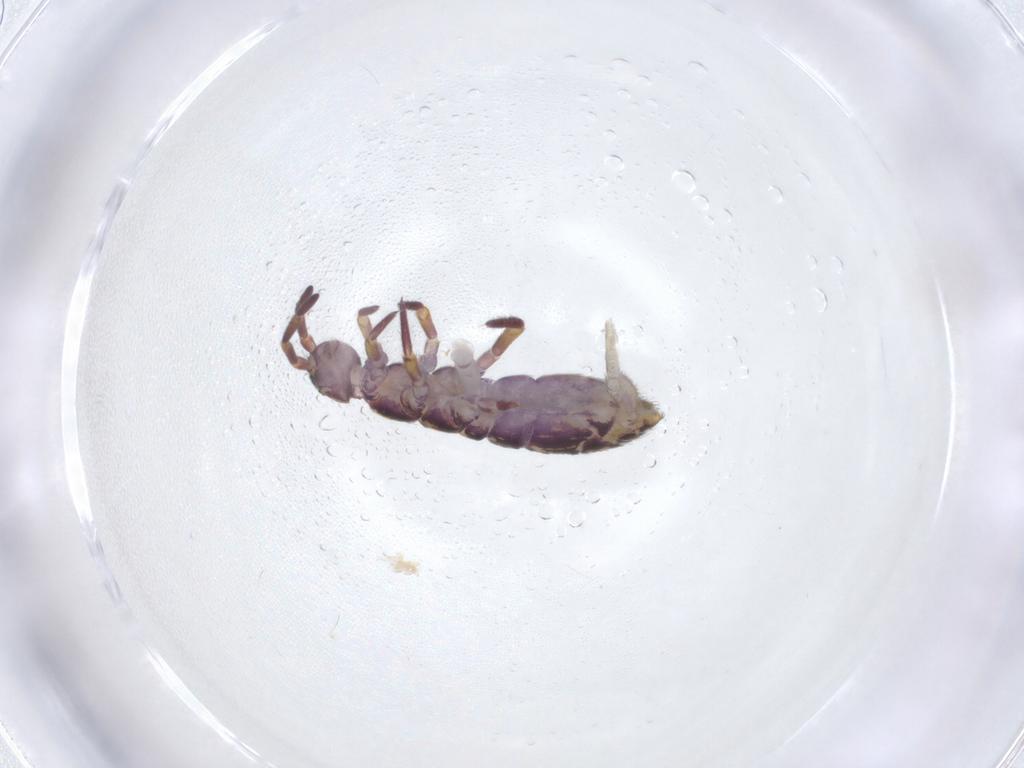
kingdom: Animalia
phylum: Arthropoda
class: Collembola
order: Entomobryomorpha
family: Isotomidae
